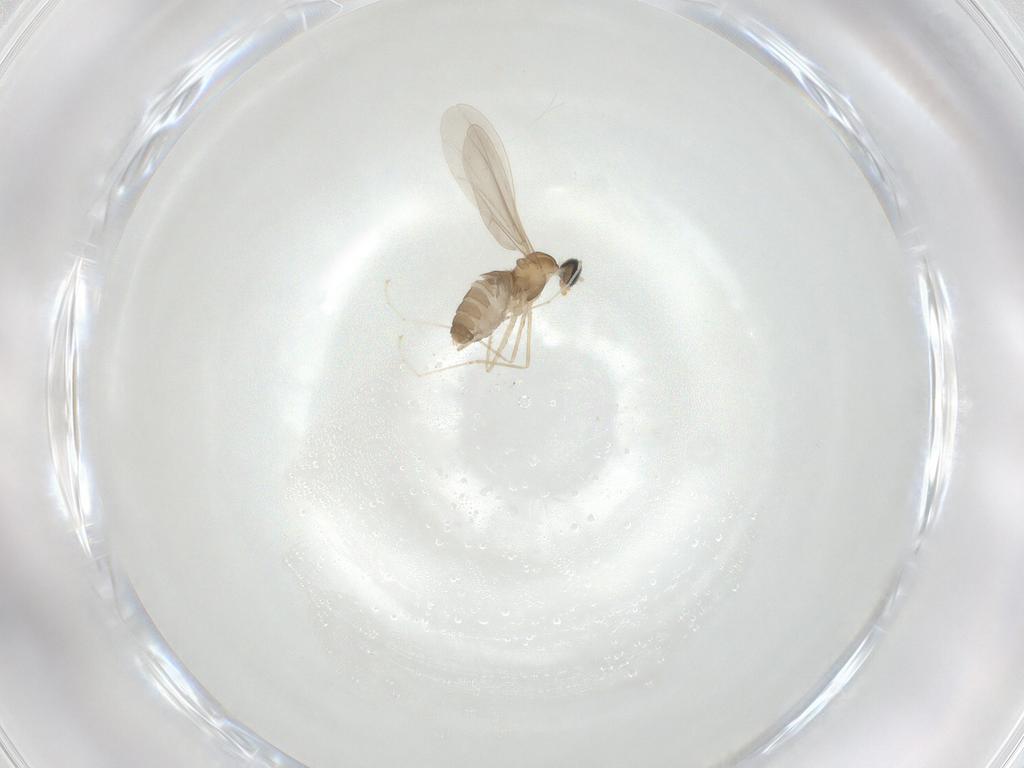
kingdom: Animalia
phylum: Arthropoda
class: Insecta
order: Diptera
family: Cecidomyiidae
